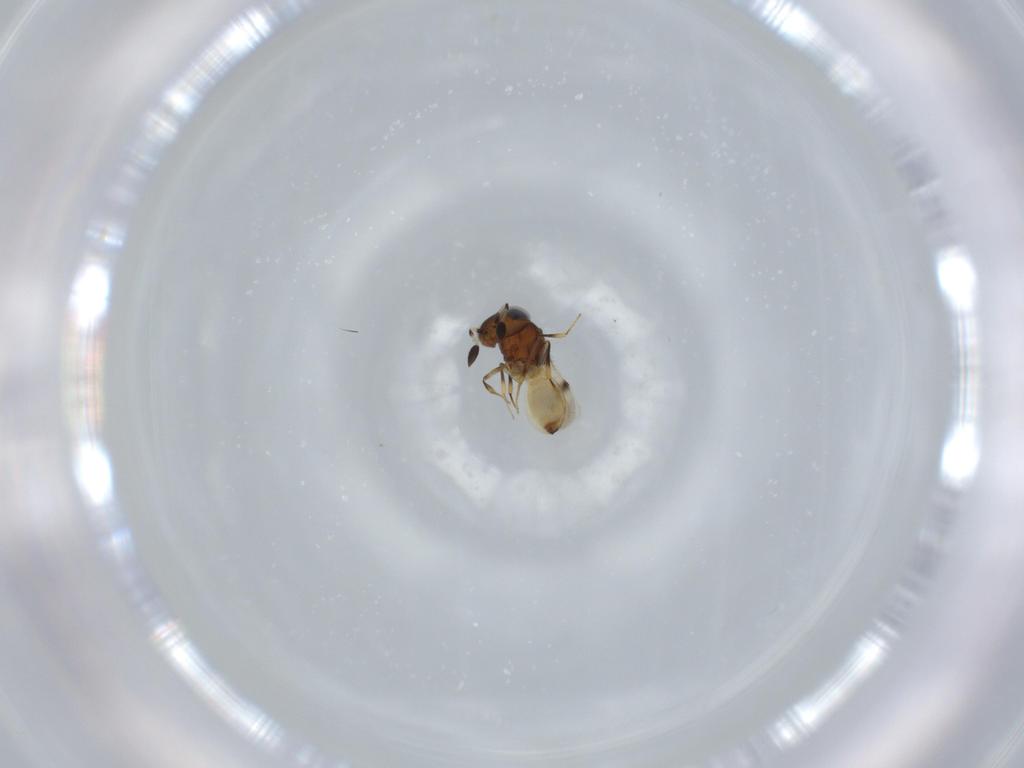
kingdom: Animalia
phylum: Arthropoda
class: Arachnida
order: Araneae
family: Pholcidae
